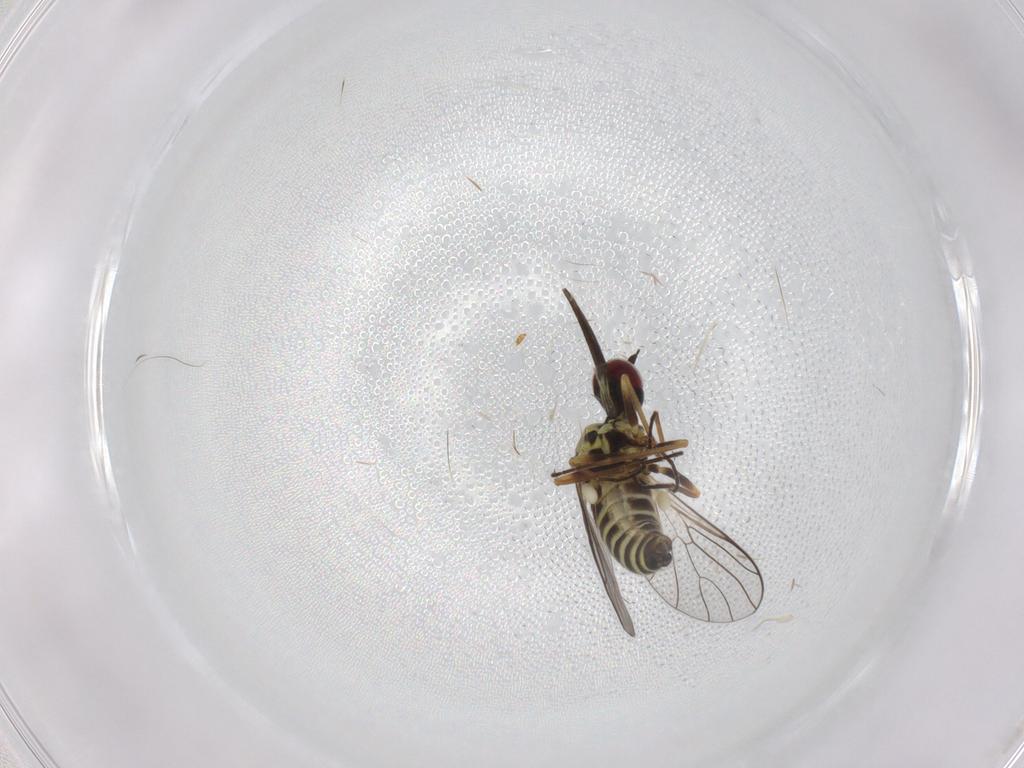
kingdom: Animalia
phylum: Arthropoda
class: Insecta
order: Diptera
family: Bombyliidae
